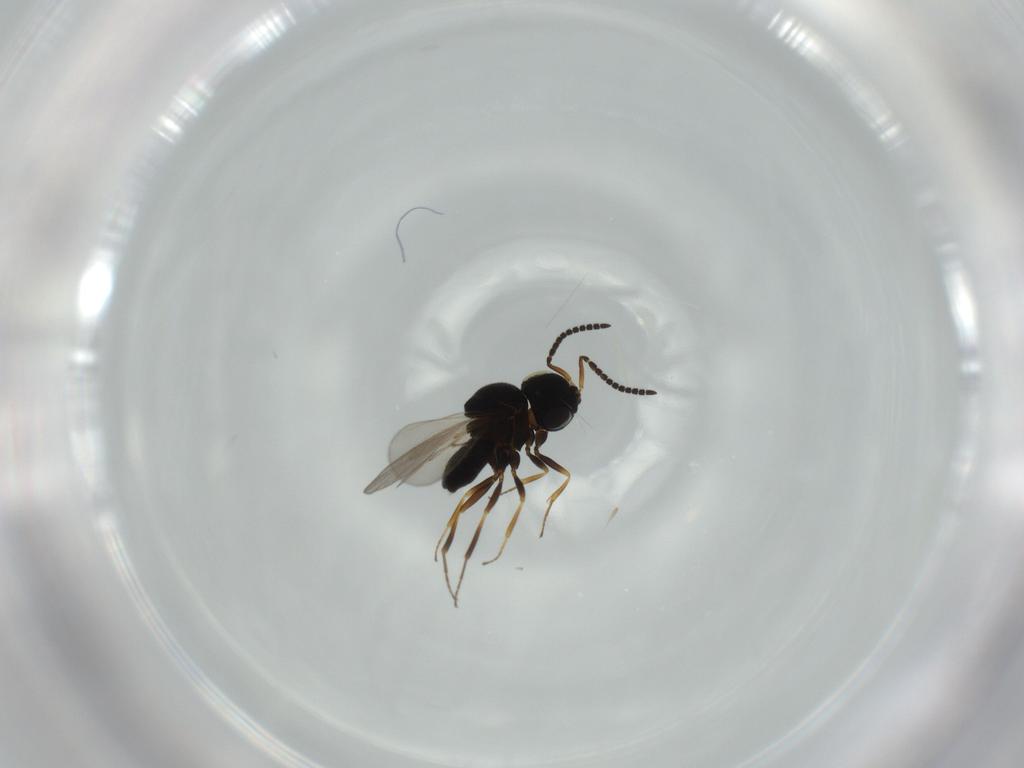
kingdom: Animalia
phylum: Arthropoda
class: Insecta
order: Hymenoptera
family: Scelionidae
